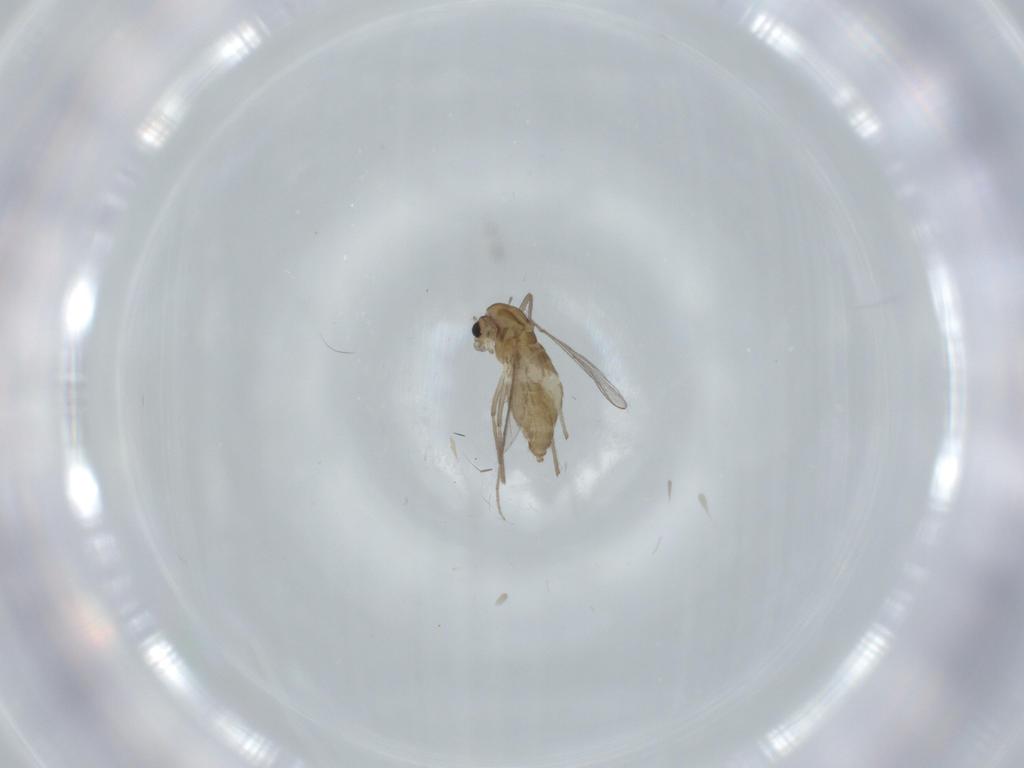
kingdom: Animalia
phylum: Arthropoda
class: Insecta
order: Diptera
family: Chironomidae
